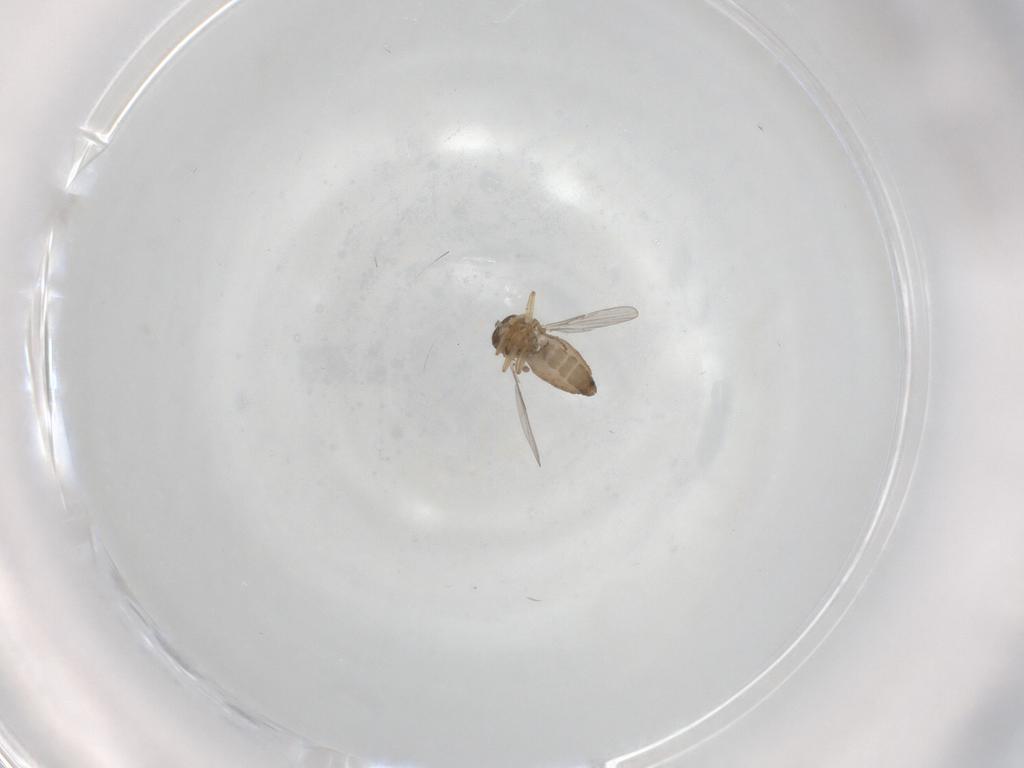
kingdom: Animalia
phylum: Arthropoda
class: Insecta
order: Diptera
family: Ceratopogonidae
